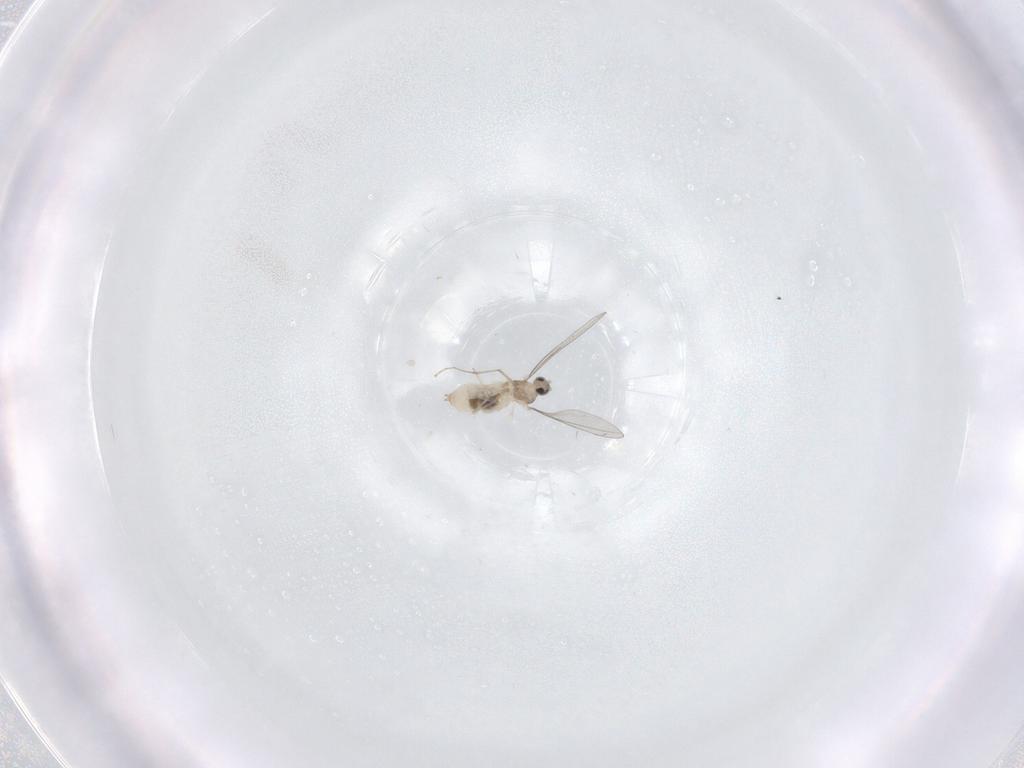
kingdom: Animalia
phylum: Arthropoda
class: Insecta
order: Diptera
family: Cecidomyiidae
